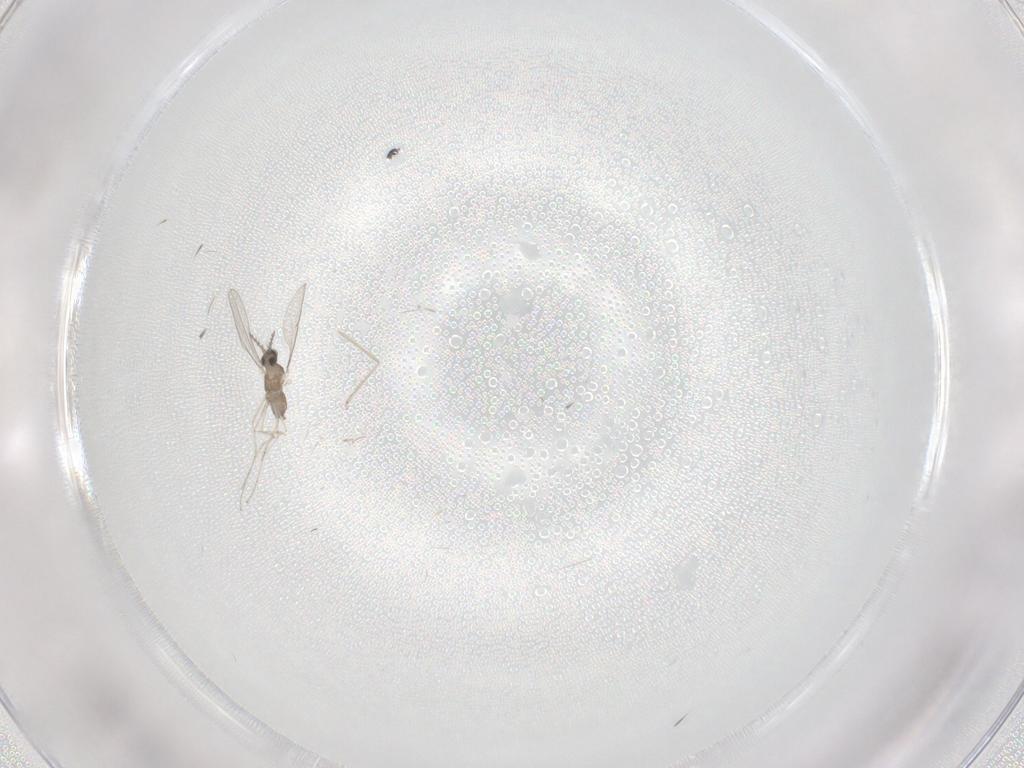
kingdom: Animalia
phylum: Arthropoda
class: Insecta
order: Diptera
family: Cecidomyiidae
